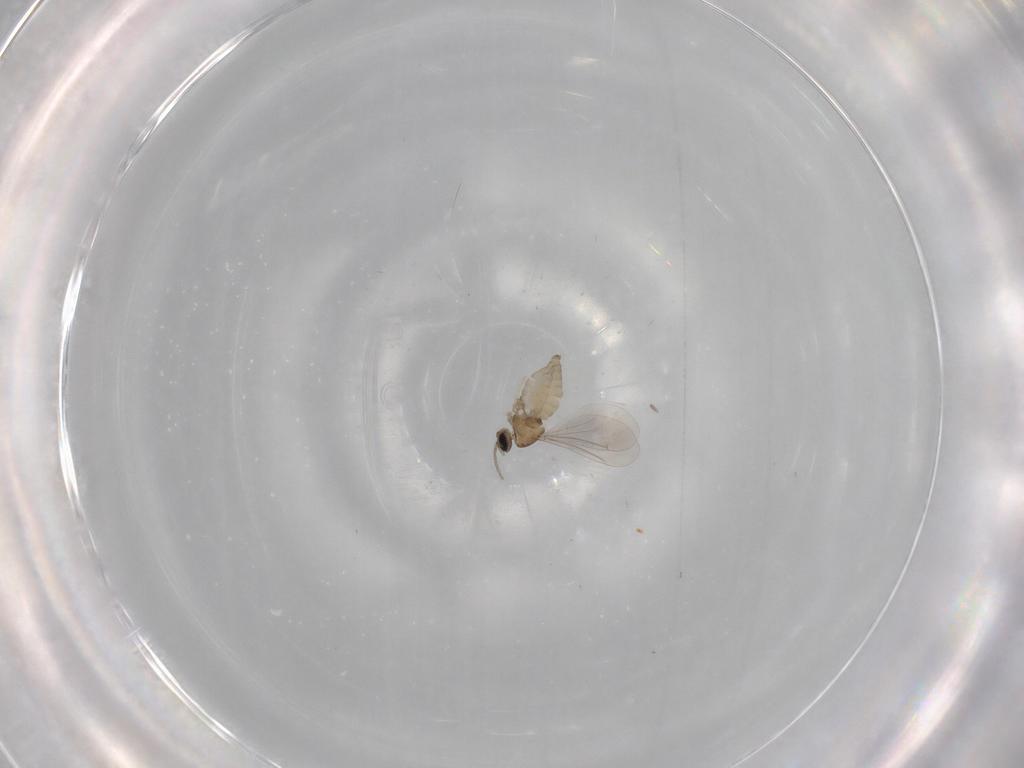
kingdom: Animalia
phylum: Arthropoda
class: Insecta
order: Diptera
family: Cecidomyiidae
